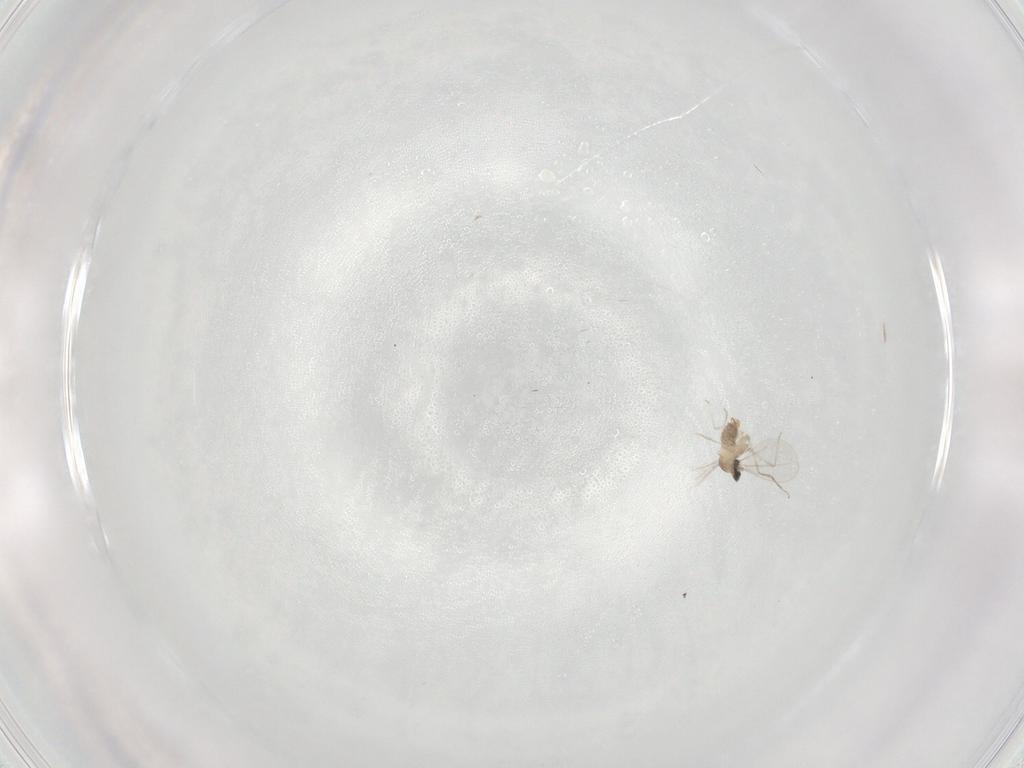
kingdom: Animalia
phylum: Arthropoda
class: Insecta
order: Diptera
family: Cecidomyiidae
